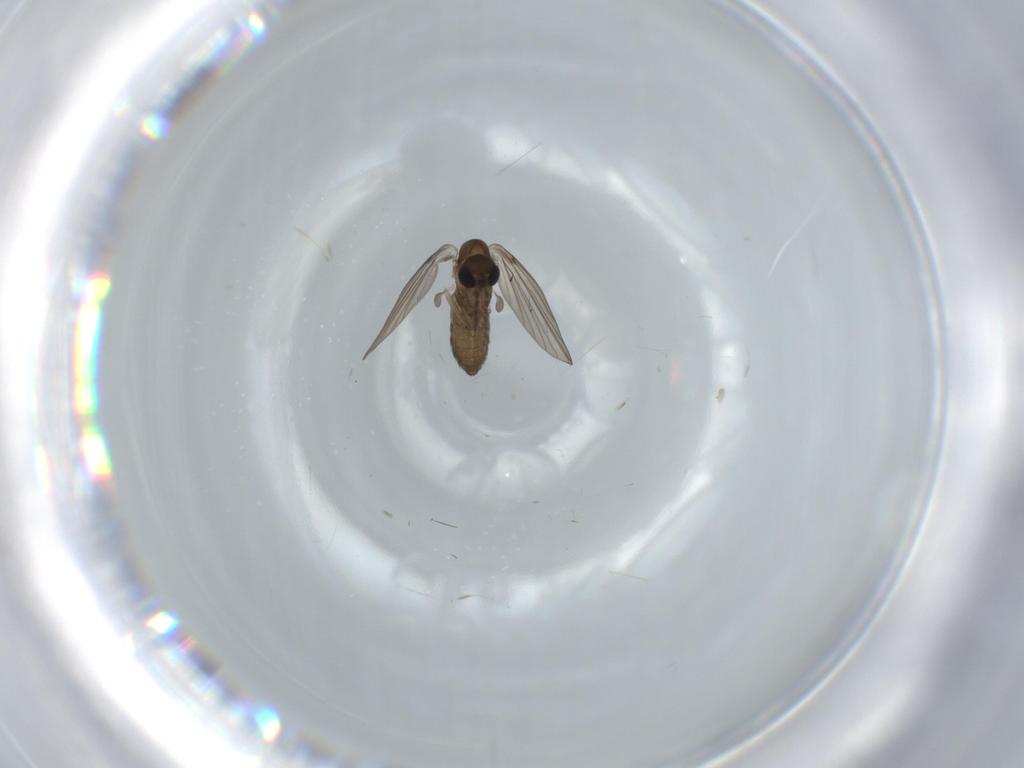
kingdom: Animalia
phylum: Arthropoda
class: Insecta
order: Diptera
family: Psychodidae
